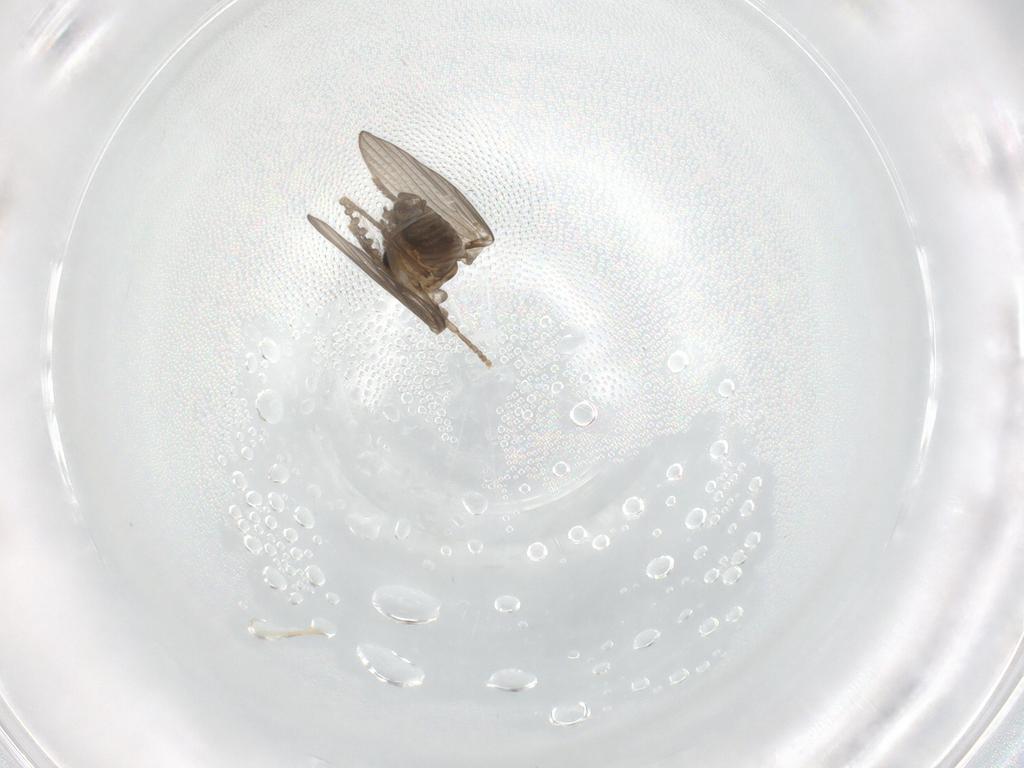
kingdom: Animalia
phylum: Arthropoda
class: Insecta
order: Diptera
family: Psychodidae
